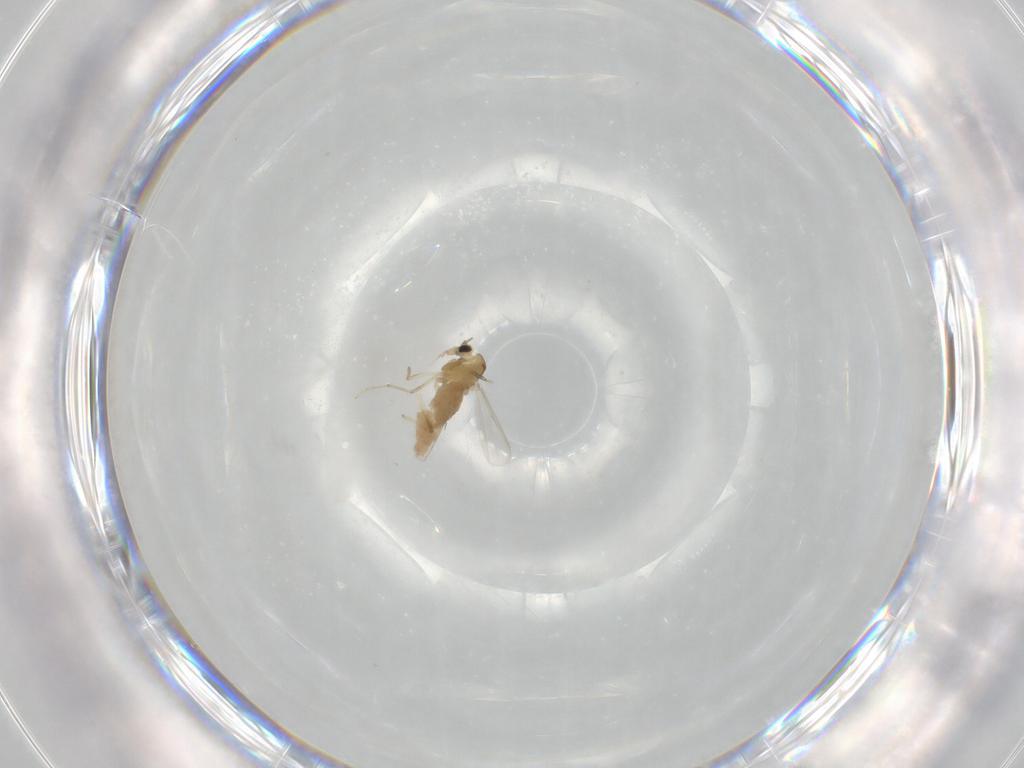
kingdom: Animalia
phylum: Arthropoda
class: Insecta
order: Diptera
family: Chironomidae
